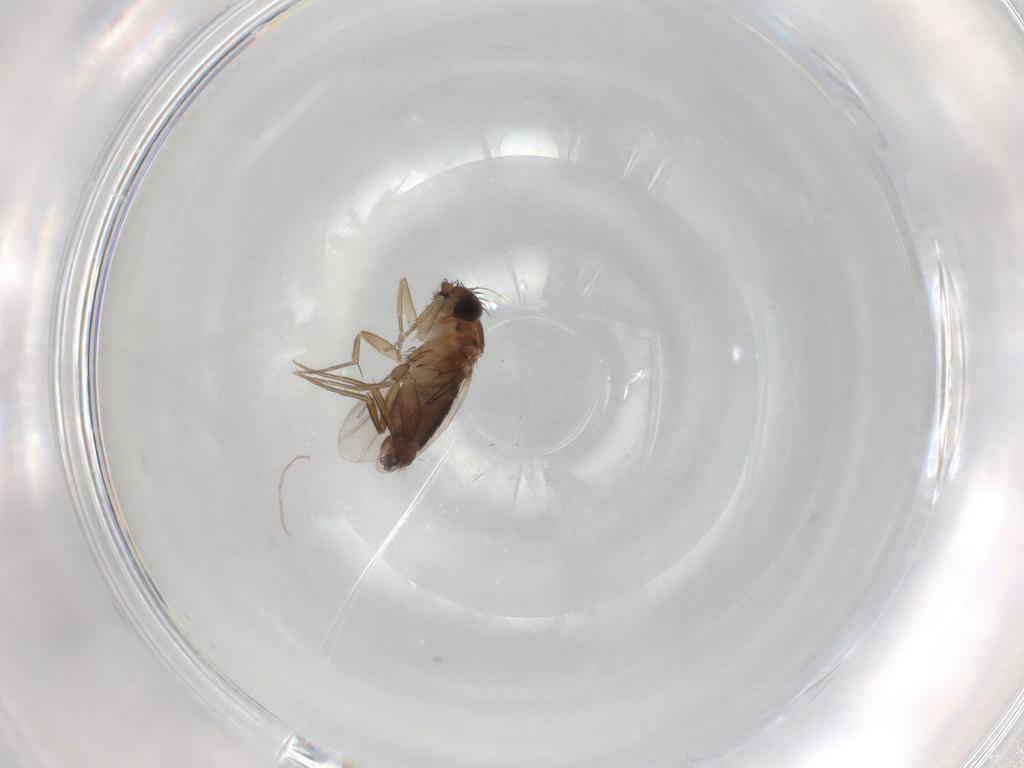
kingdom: Animalia
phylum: Arthropoda
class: Insecta
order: Diptera
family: Phoridae
